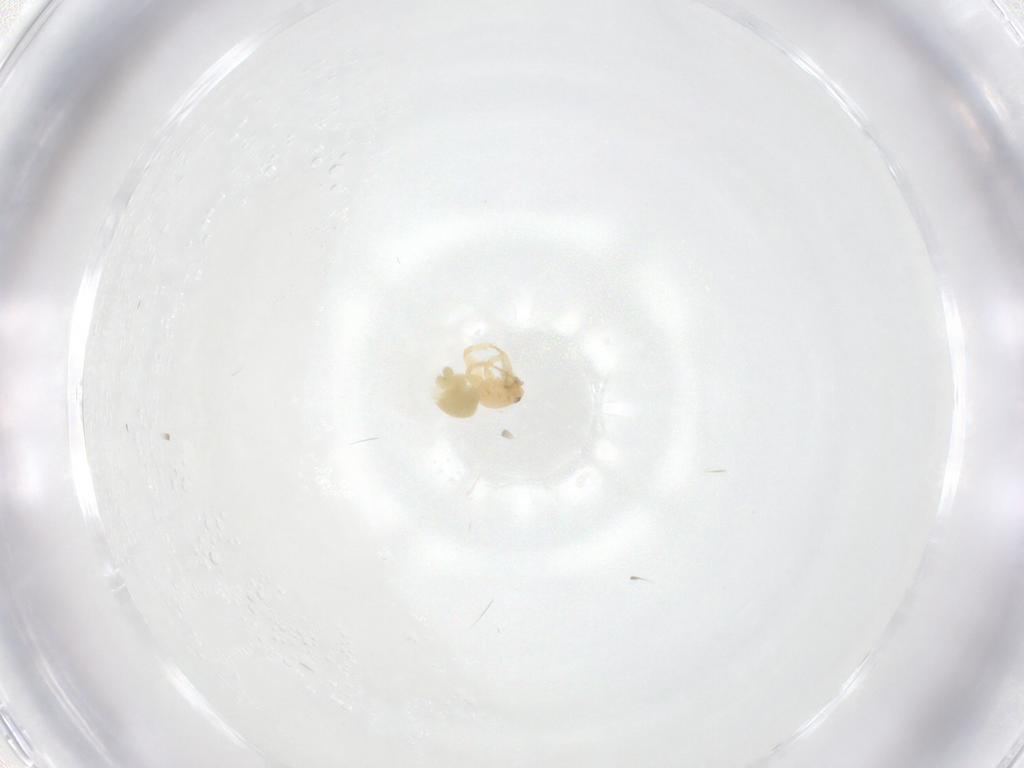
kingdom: Animalia
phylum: Arthropoda
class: Arachnida
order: Araneae
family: Oonopidae
